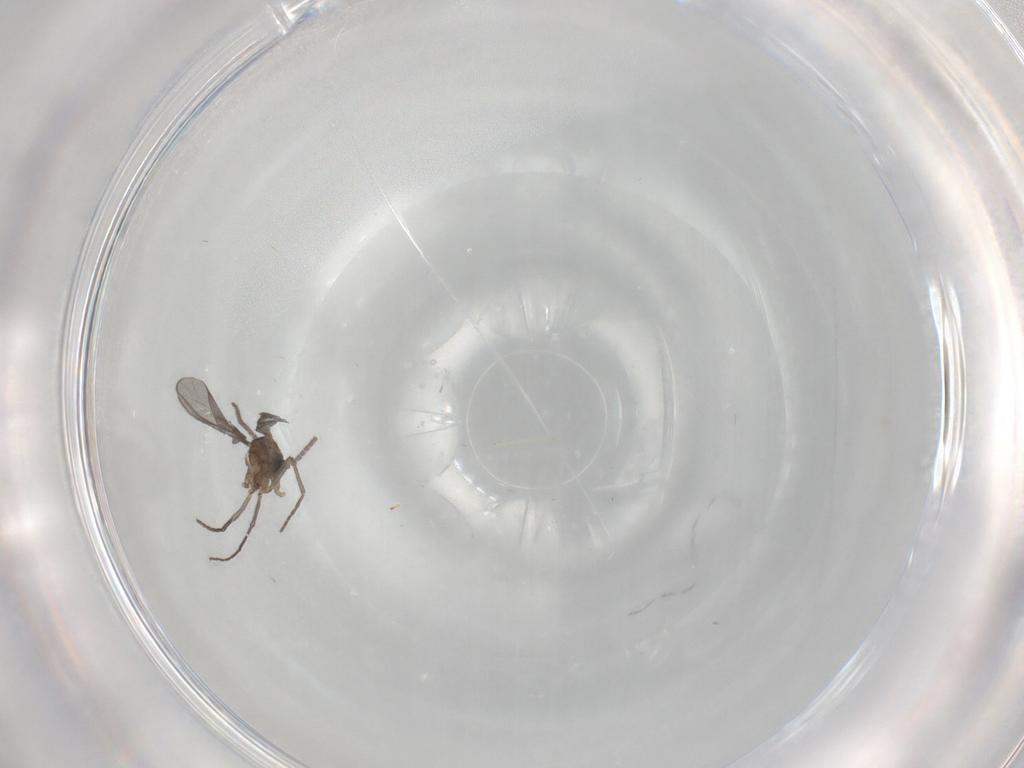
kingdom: Animalia
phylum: Arthropoda
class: Insecta
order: Diptera
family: Sciaridae
